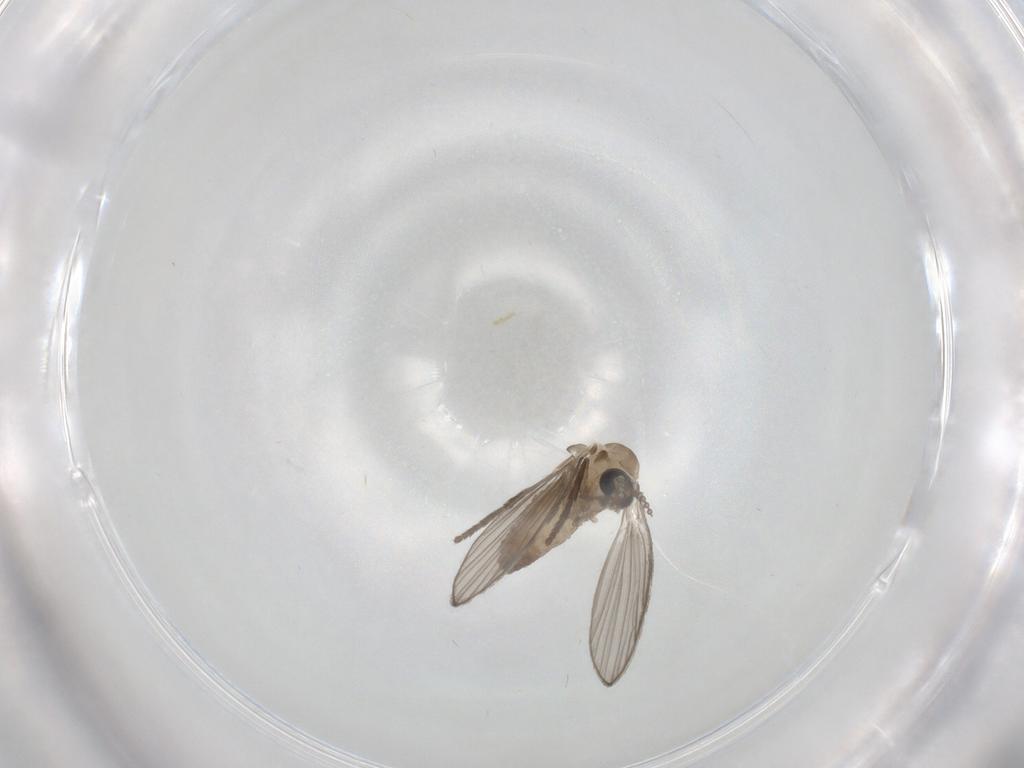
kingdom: Animalia
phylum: Arthropoda
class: Insecta
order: Diptera
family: Psychodidae
